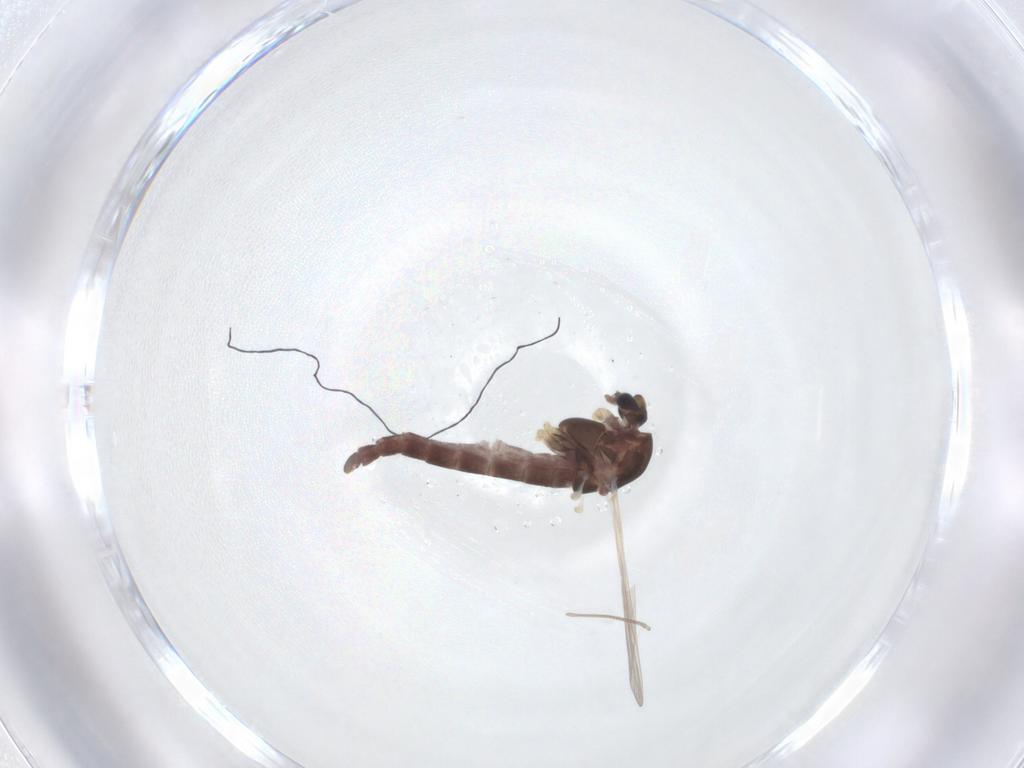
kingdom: Animalia
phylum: Arthropoda
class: Insecta
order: Diptera
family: Chironomidae
